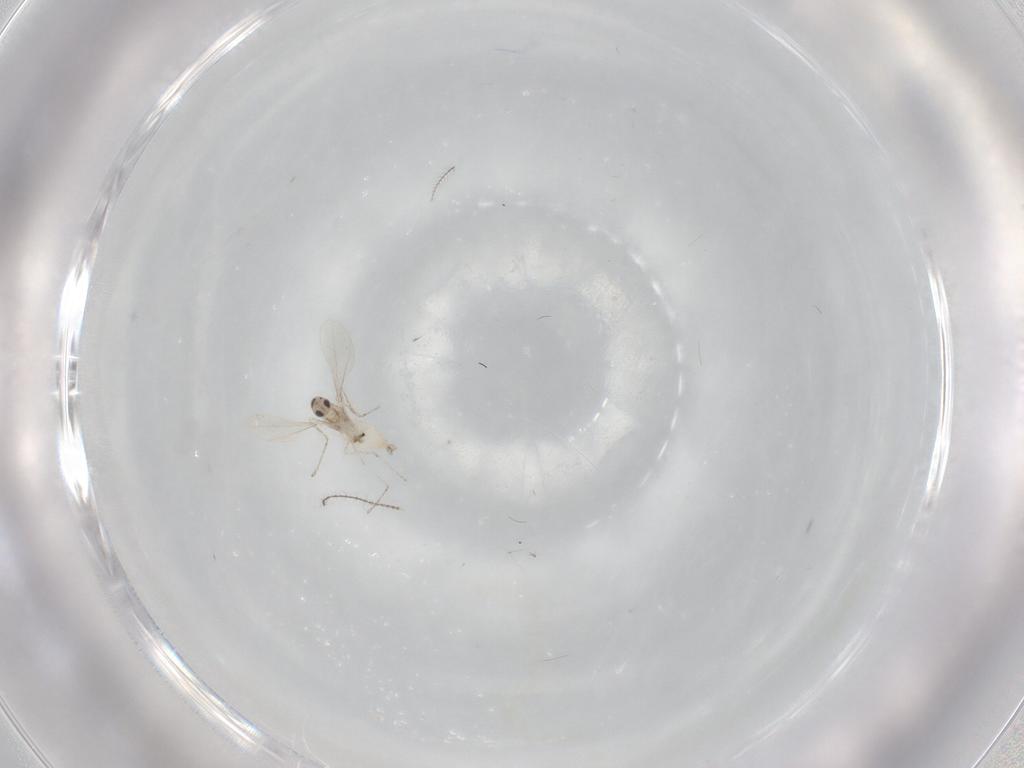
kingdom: Animalia
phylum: Arthropoda
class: Insecta
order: Diptera
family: Cecidomyiidae
